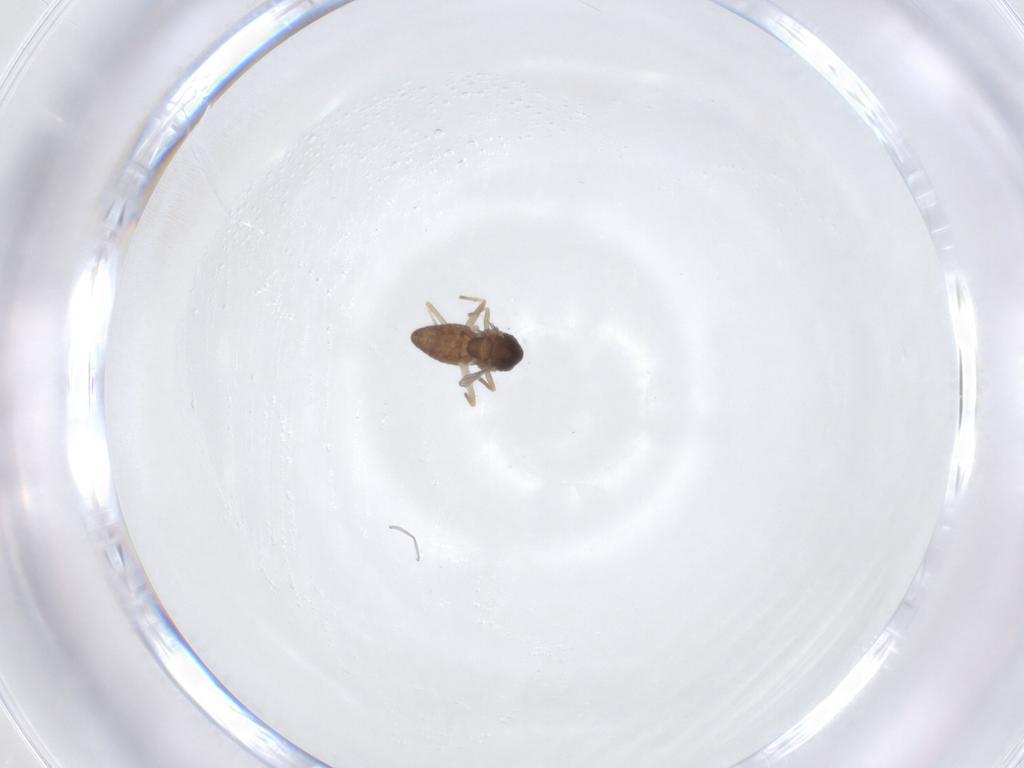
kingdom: Animalia
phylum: Arthropoda
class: Insecta
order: Diptera
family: Chironomidae
